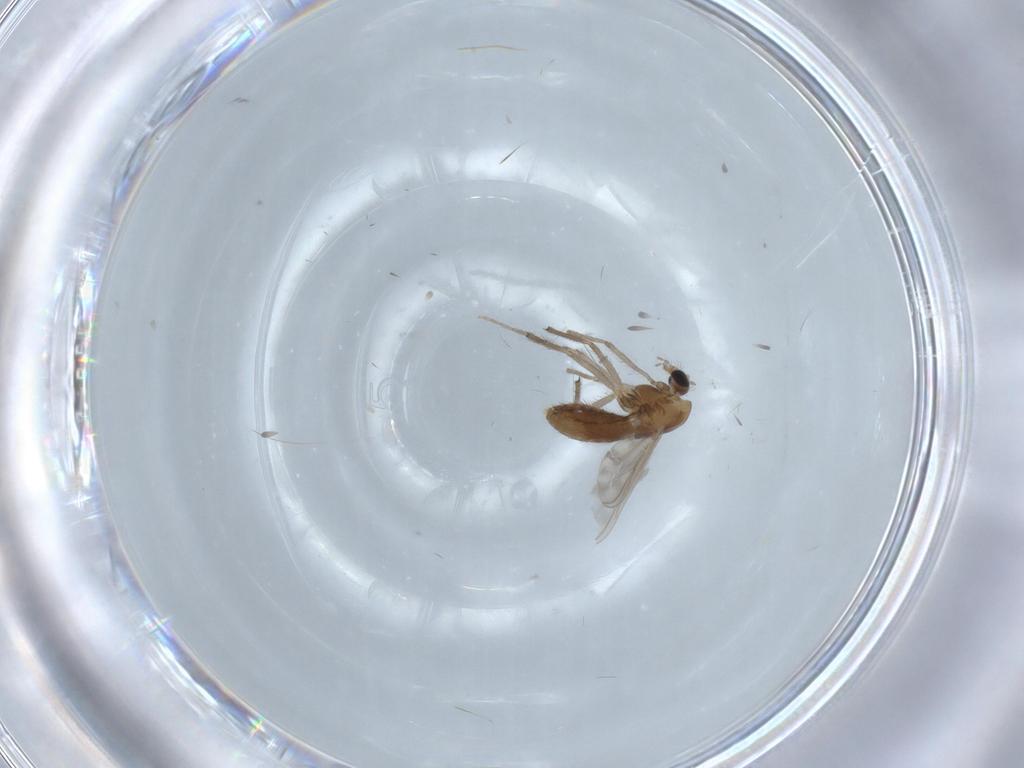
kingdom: Animalia
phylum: Arthropoda
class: Insecta
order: Diptera
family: Chironomidae
